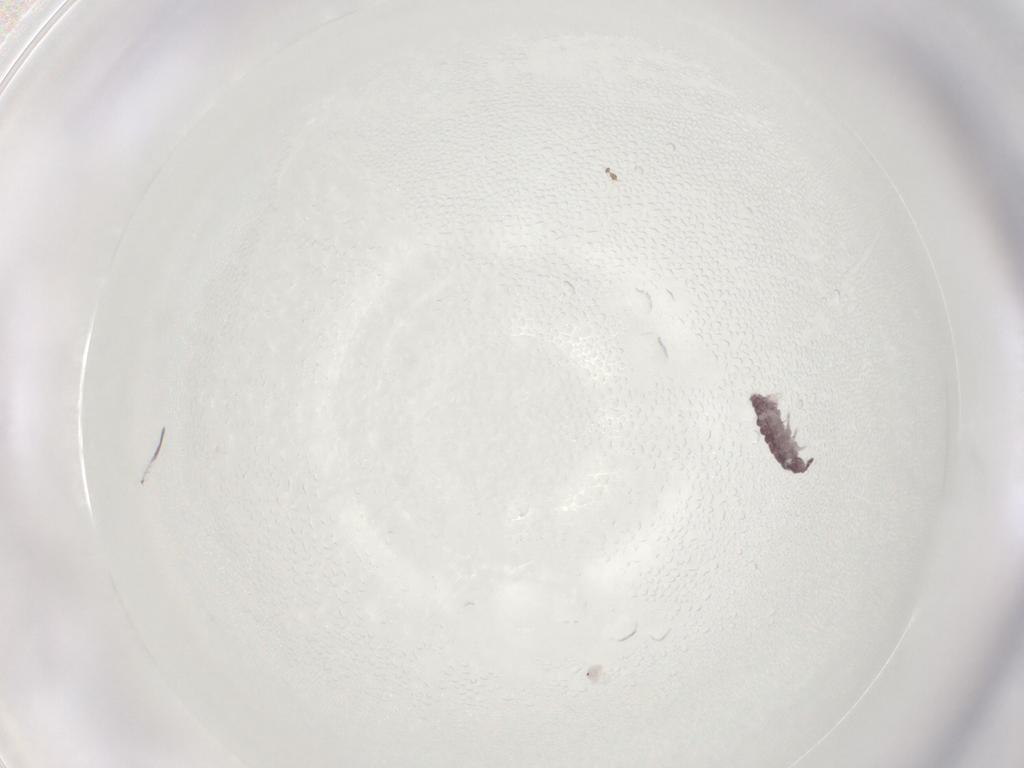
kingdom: Animalia
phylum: Arthropoda
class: Collembola
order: Poduromorpha
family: Hypogastruridae
